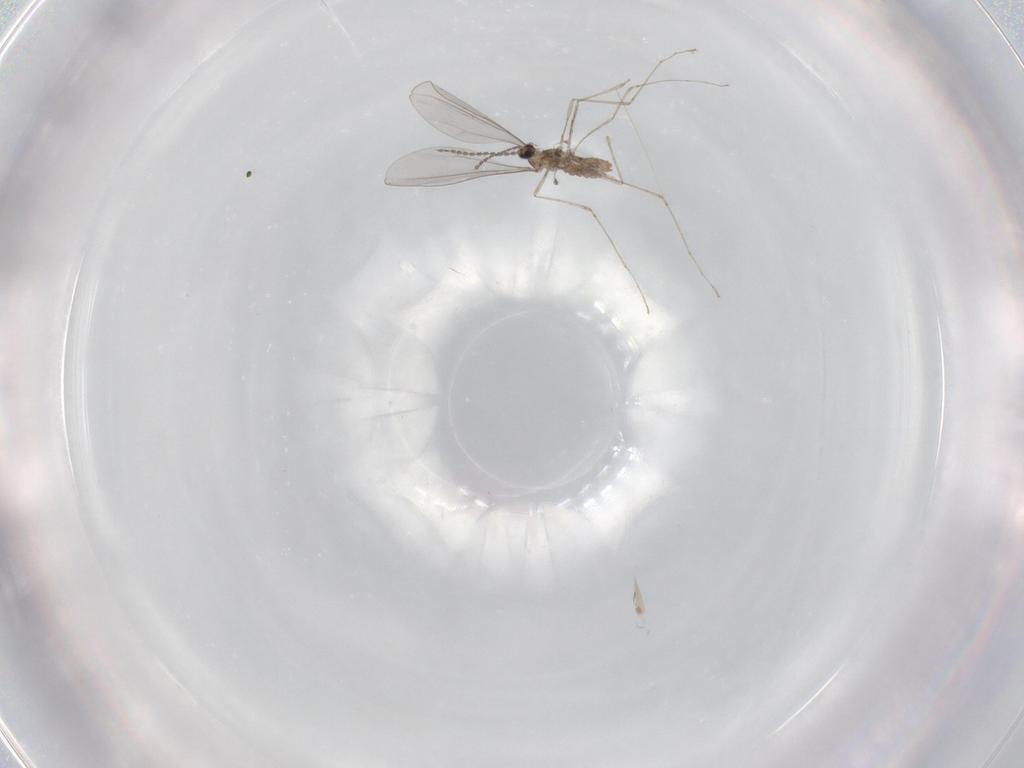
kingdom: Animalia
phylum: Arthropoda
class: Insecta
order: Diptera
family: Cecidomyiidae
